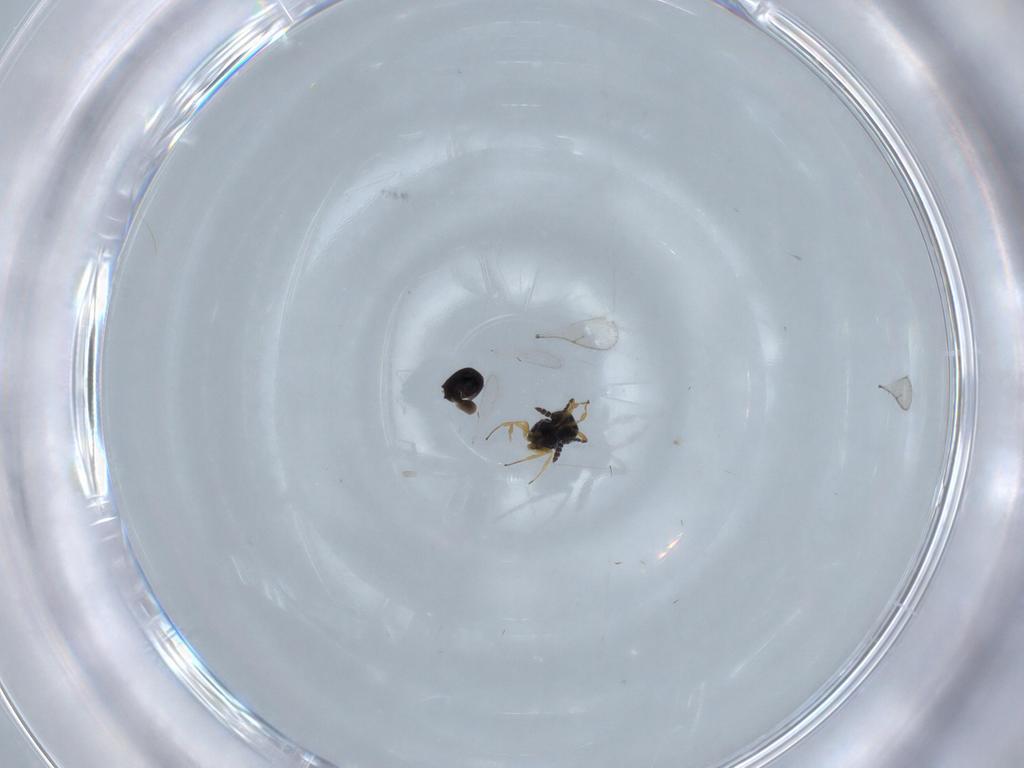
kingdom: Animalia
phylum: Arthropoda
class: Insecta
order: Hymenoptera
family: Scelionidae
